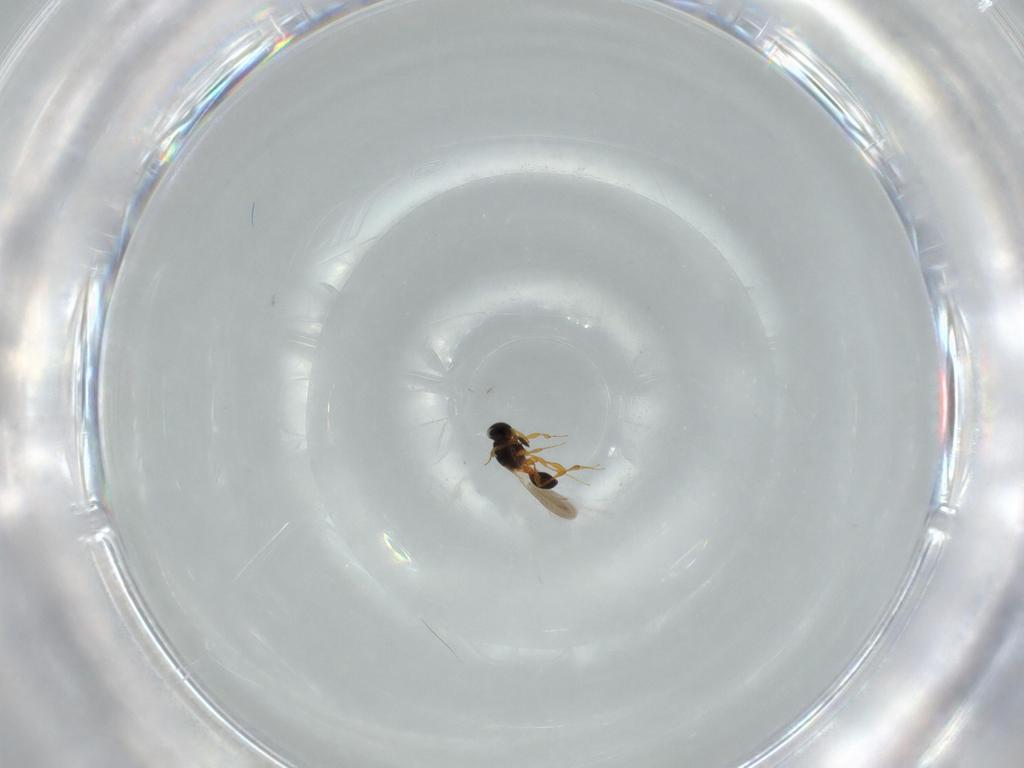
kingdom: Animalia
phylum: Arthropoda
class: Insecta
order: Hymenoptera
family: Platygastridae
